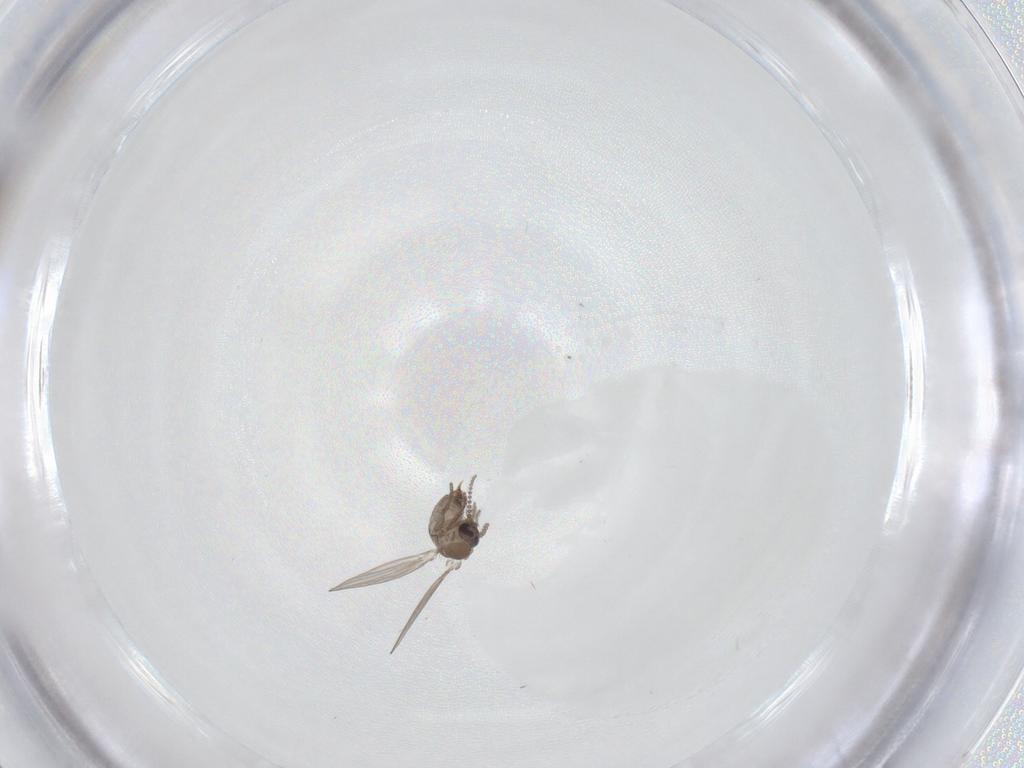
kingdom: Animalia
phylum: Arthropoda
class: Insecta
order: Diptera
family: Psychodidae
